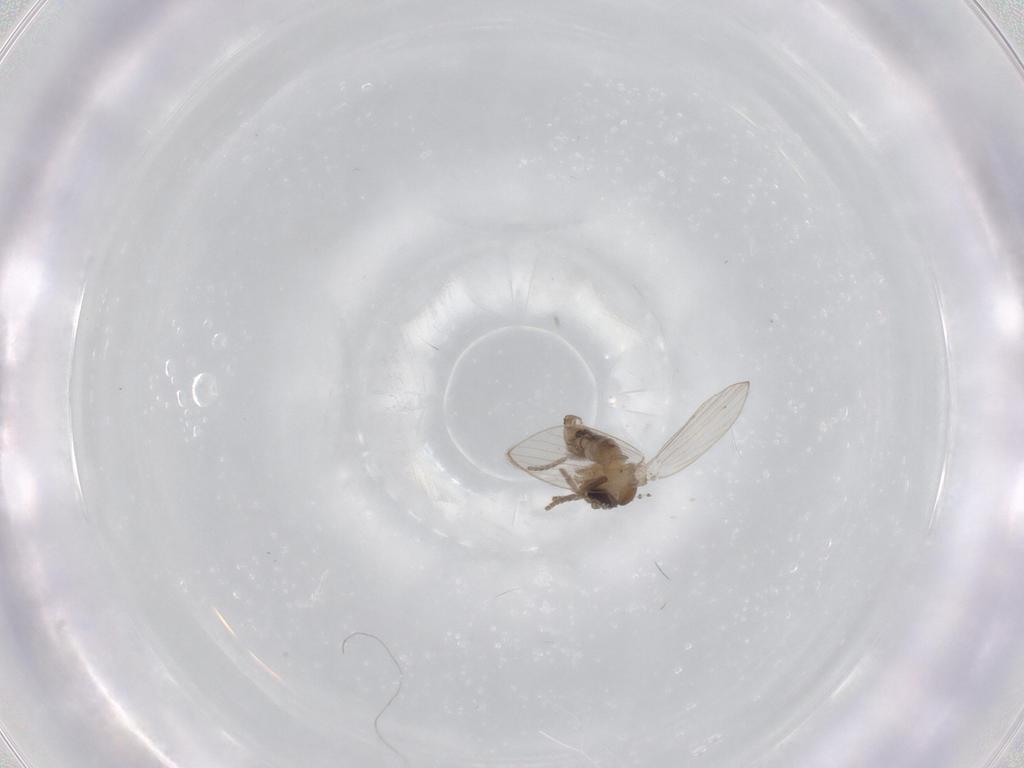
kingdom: Animalia
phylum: Arthropoda
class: Insecta
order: Diptera
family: Psychodidae
